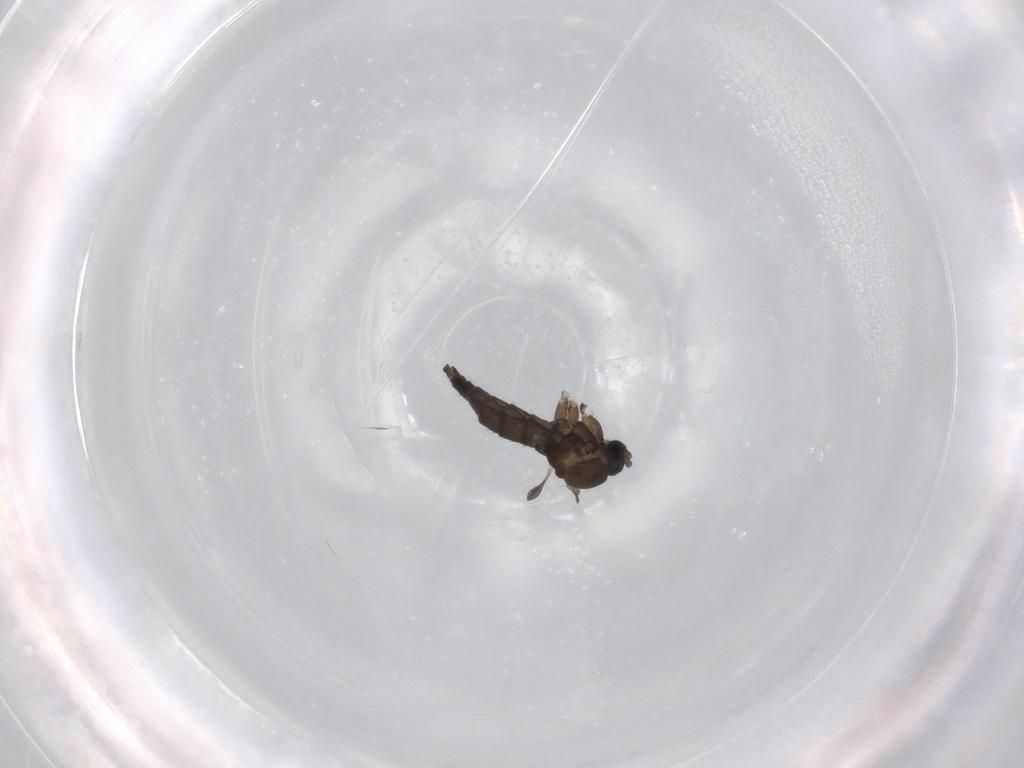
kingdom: Animalia
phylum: Arthropoda
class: Insecta
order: Diptera
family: Sciaridae
